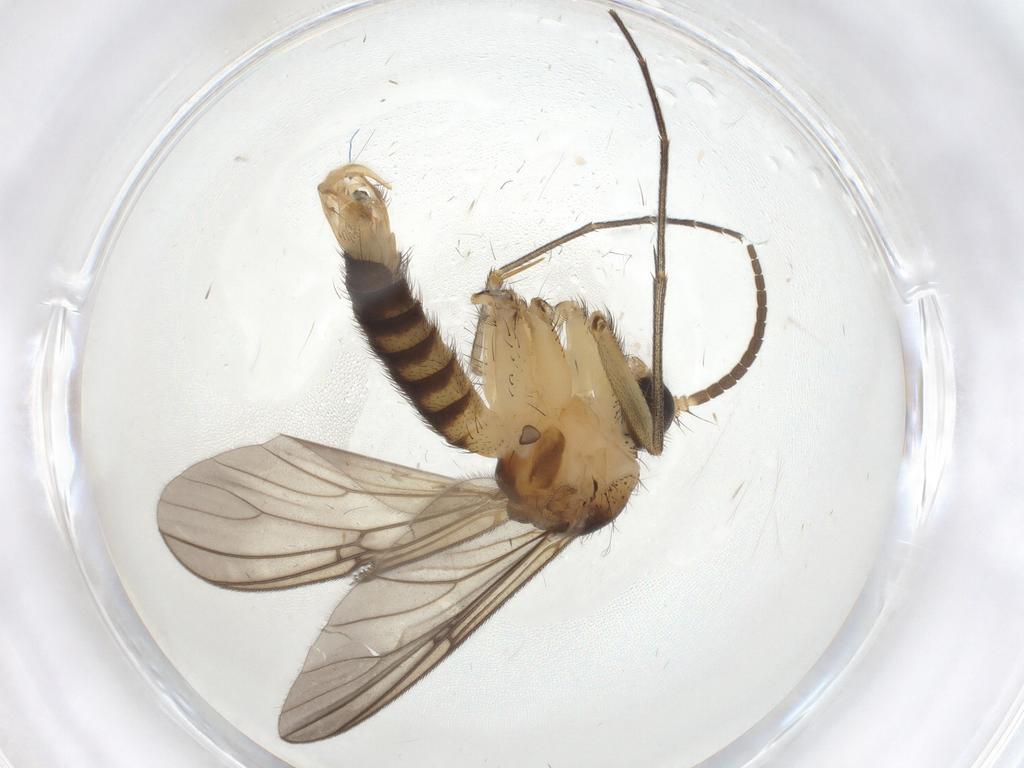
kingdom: Animalia
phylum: Arthropoda
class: Insecta
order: Diptera
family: Mycetophilidae
